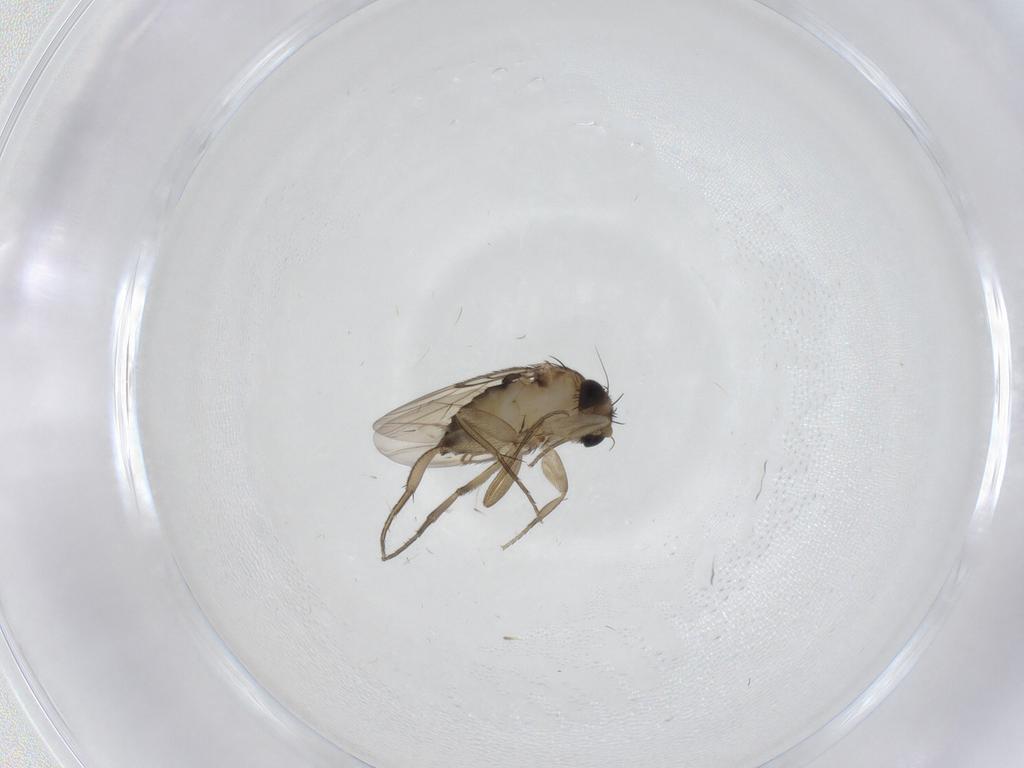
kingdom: Animalia
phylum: Arthropoda
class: Insecta
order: Diptera
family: Phoridae
